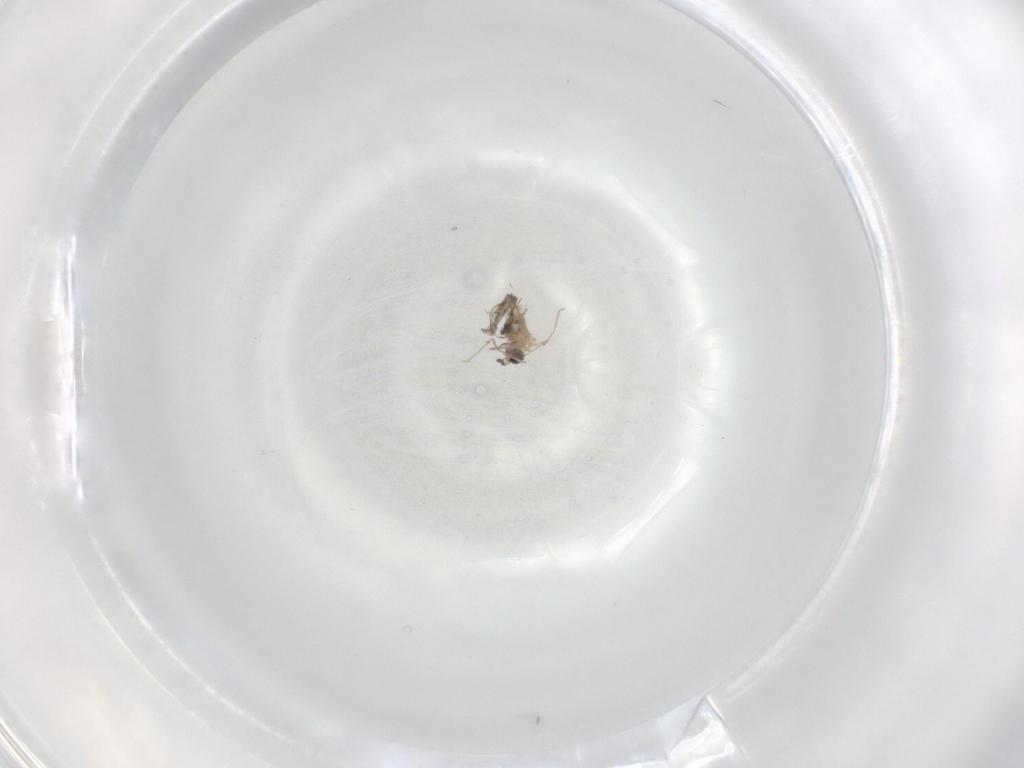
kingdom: Animalia
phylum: Arthropoda
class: Insecta
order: Diptera
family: Cecidomyiidae
